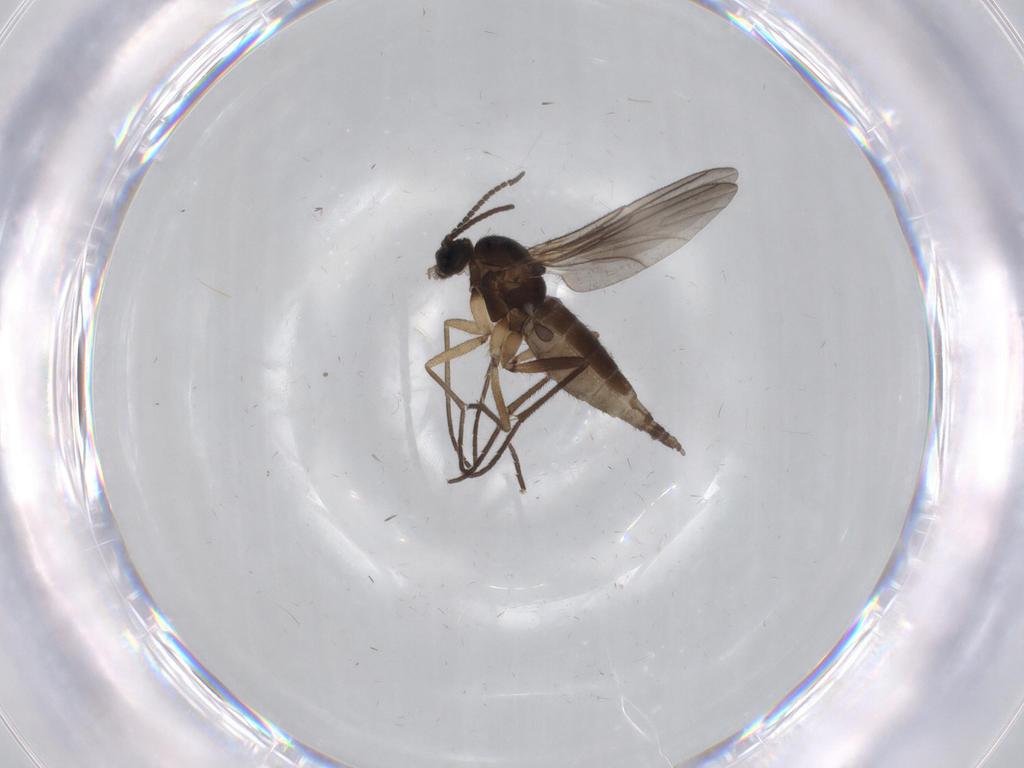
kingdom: Animalia
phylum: Arthropoda
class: Insecta
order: Diptera
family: Sciaridae
